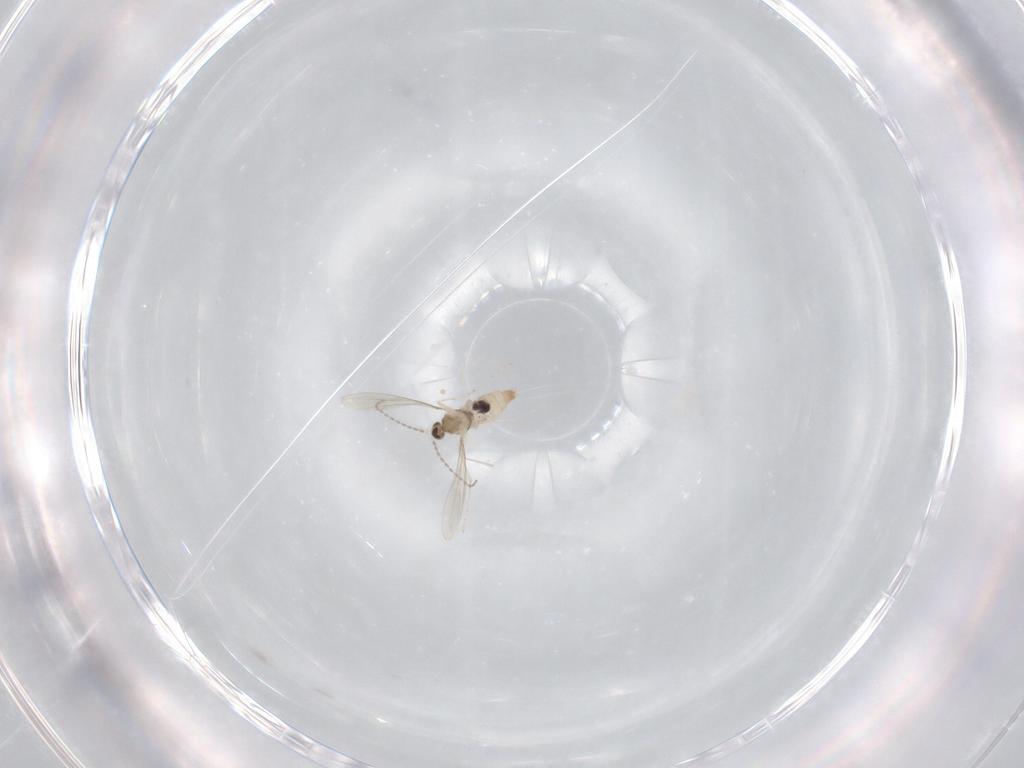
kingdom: Animalia
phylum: Arthropoda
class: Insecta
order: Diptera
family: Cecidomyiidae
